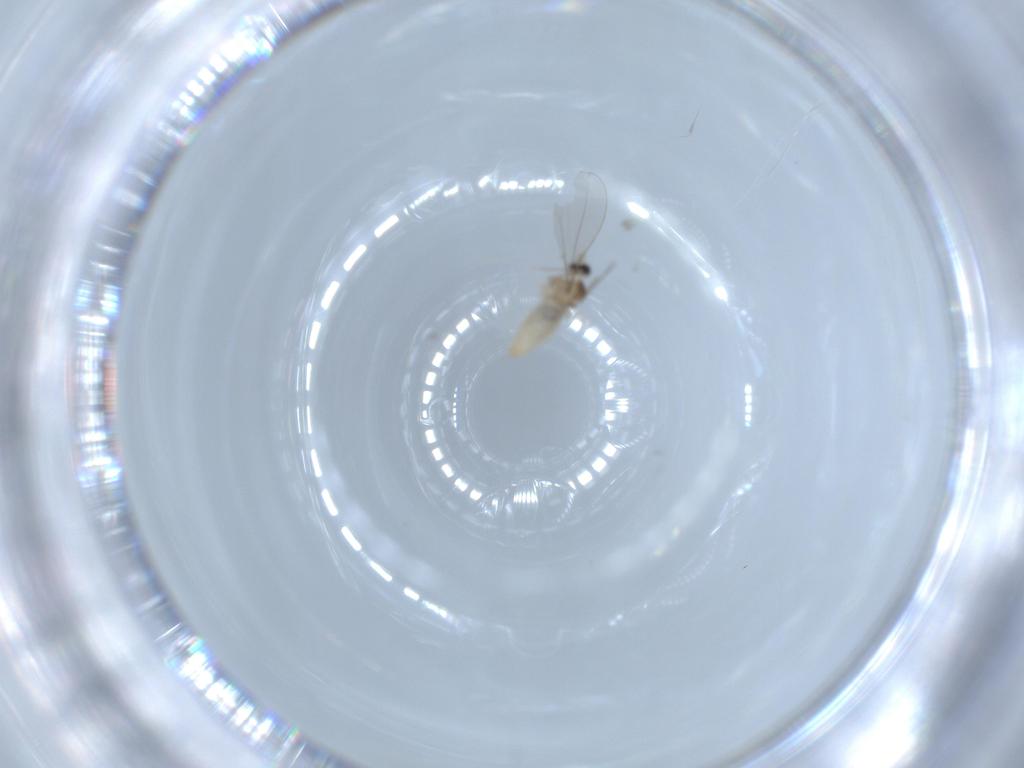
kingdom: Animalia
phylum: Arthropoda
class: Insecta
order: Diptera
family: Cecidomyiidae
